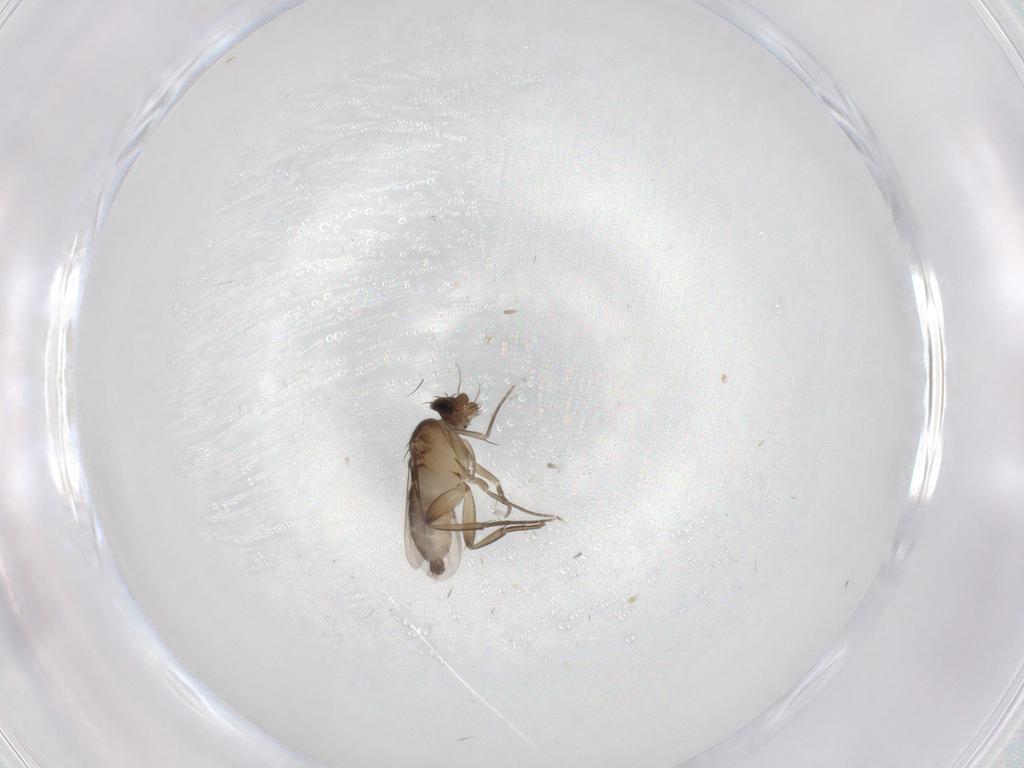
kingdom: Animalia
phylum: Arthropoda
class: Insecta
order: Diptera
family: Phoridae
